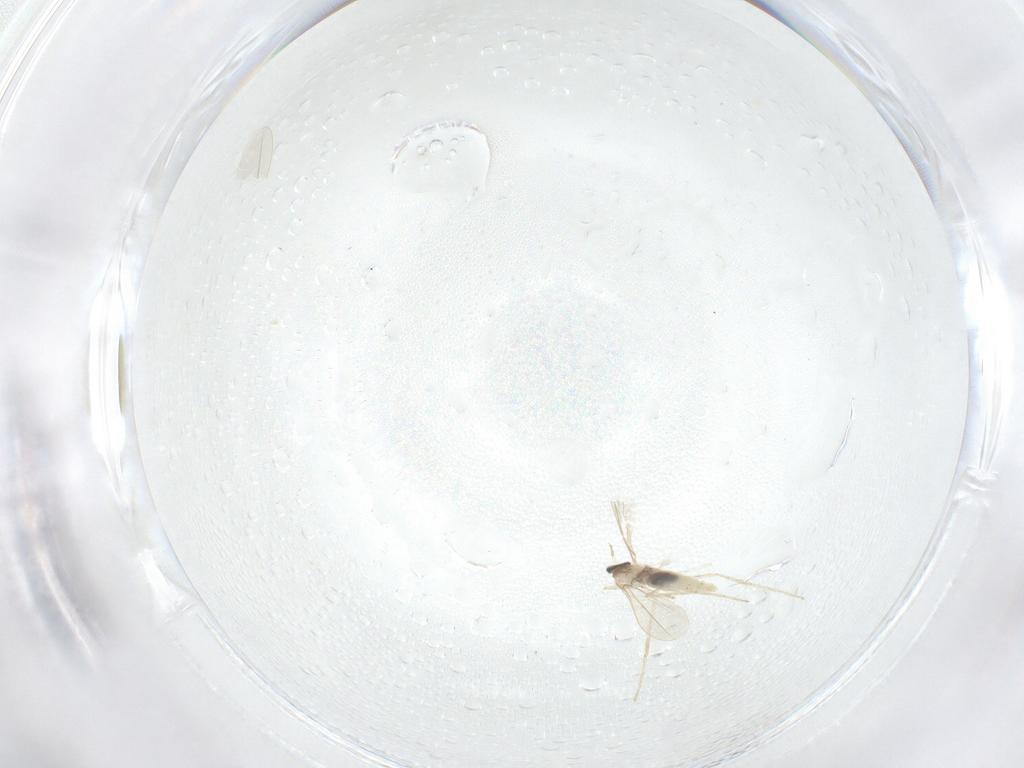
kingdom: Animalia
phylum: Arthropoda
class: Insecta
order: Diptera
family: Cecidomyiidae
